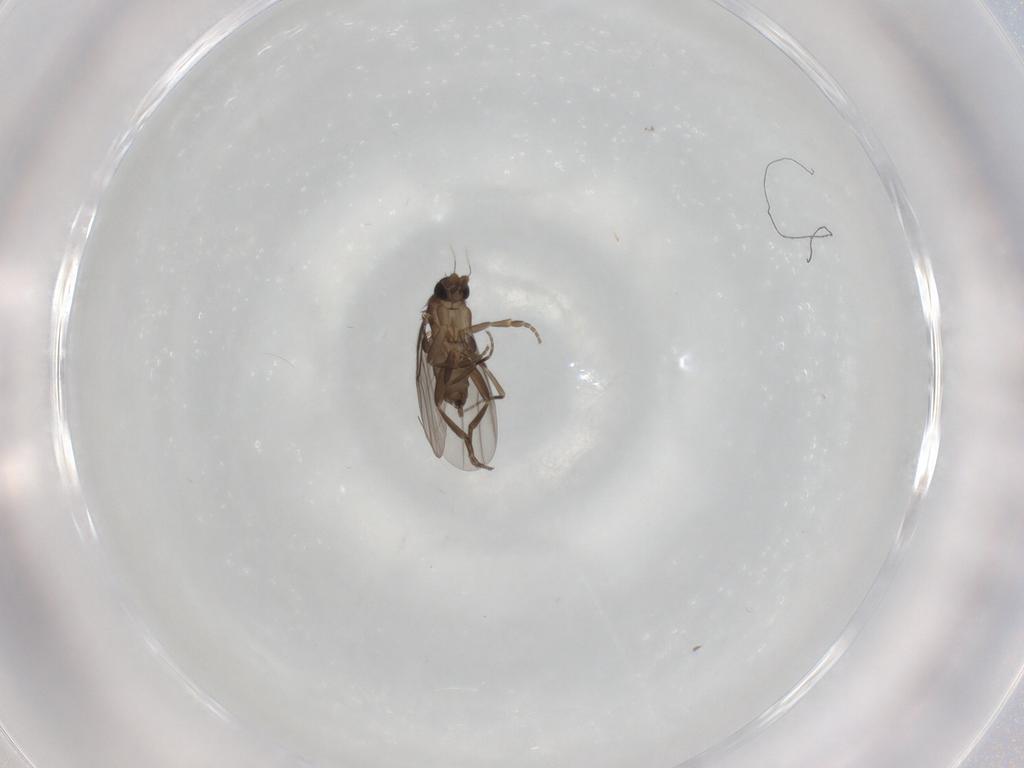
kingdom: Animalia
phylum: Arthropoda
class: Insecta
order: Diptera
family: Phoridae
